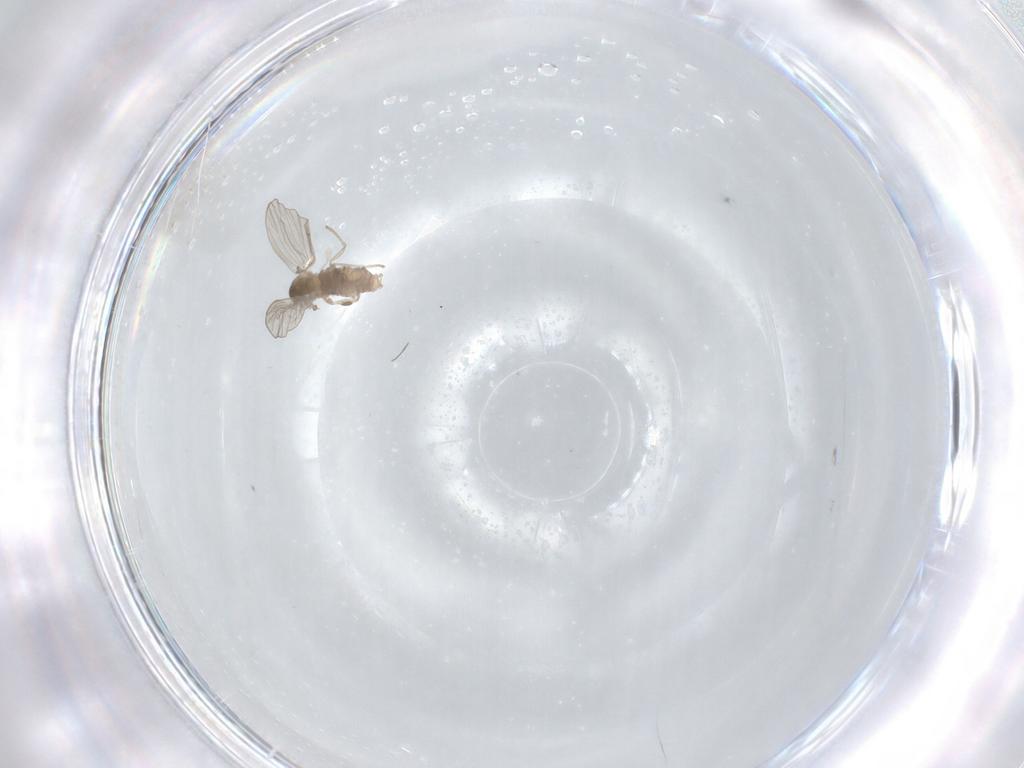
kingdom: Animalia
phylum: Arthropoda
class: Insecta
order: Diptera
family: Psychodidae
